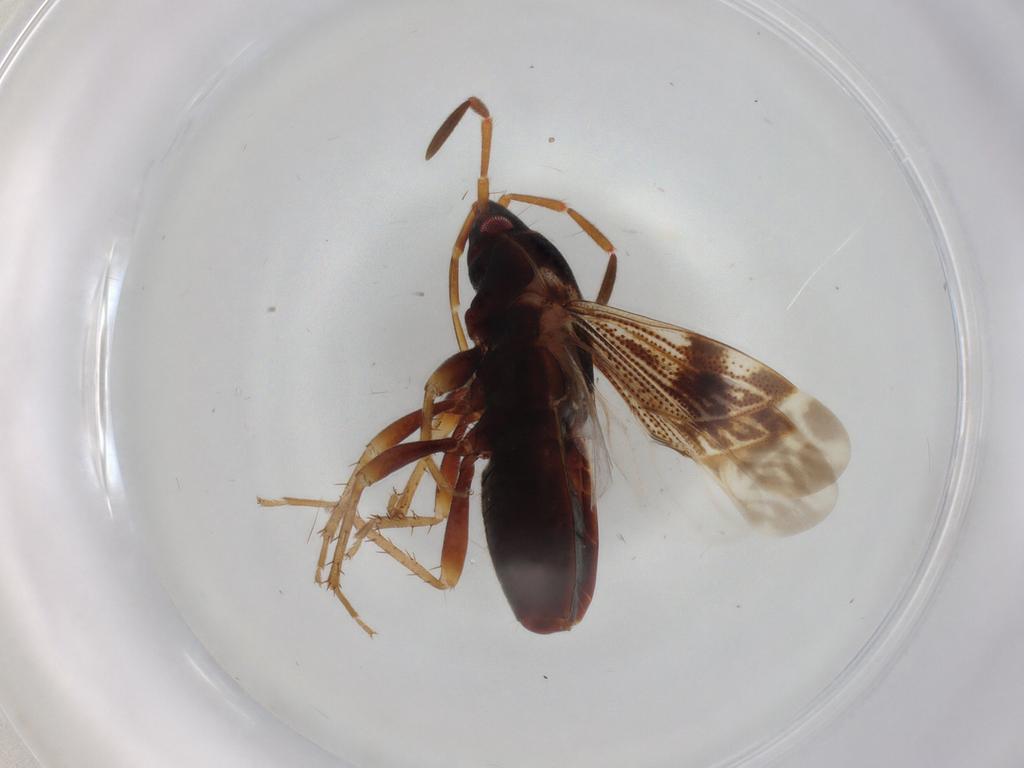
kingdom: Animalia
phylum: Arthropoda
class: Insecta
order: Hemiptera
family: Rhyparochromidae
